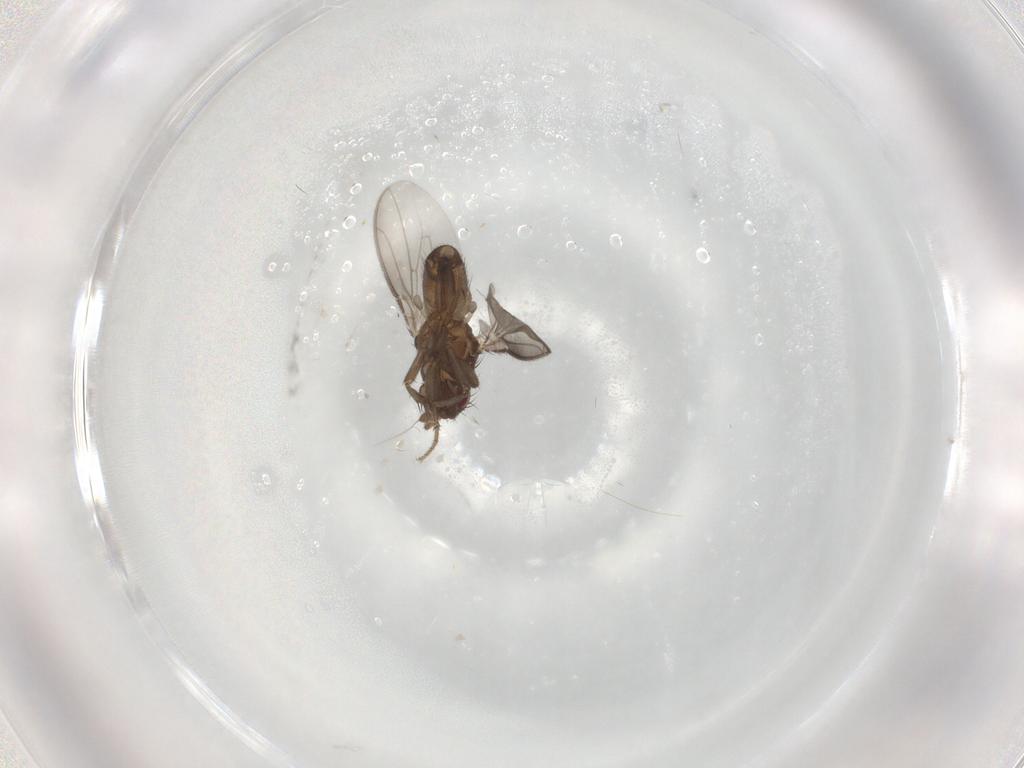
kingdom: Animalia
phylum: Arthropoda
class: Insecta
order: Diptera
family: Sphaeroceridae
